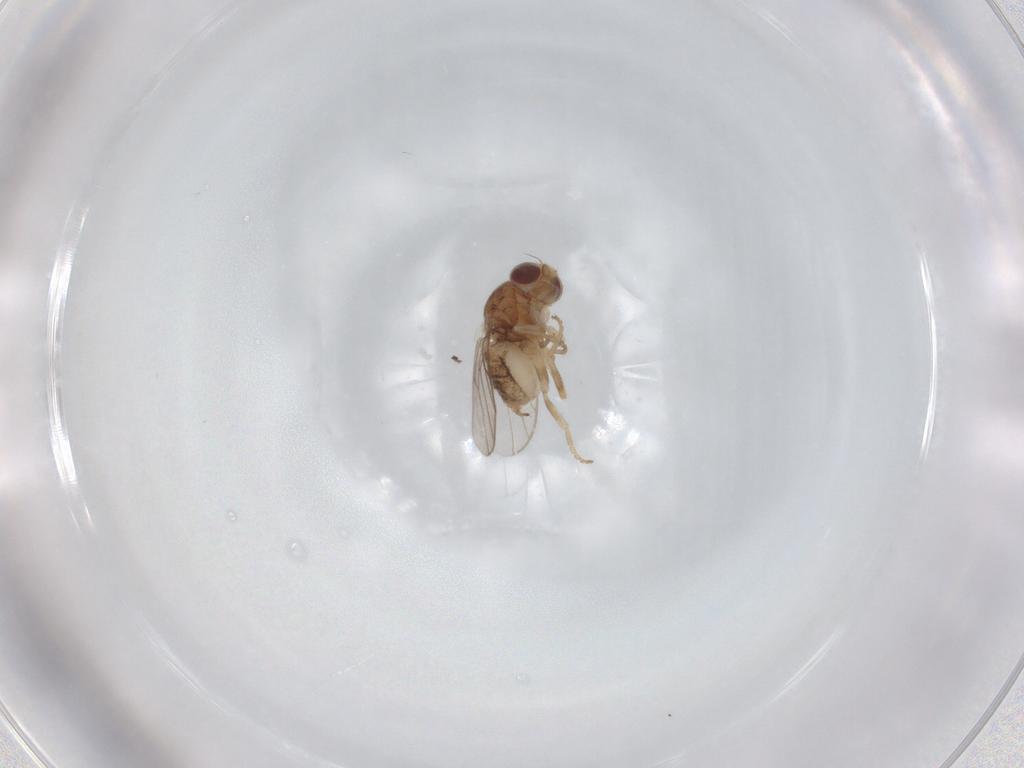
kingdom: Animalia
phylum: Arthropoda
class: Insecta
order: Diptera
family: Chloropidae
